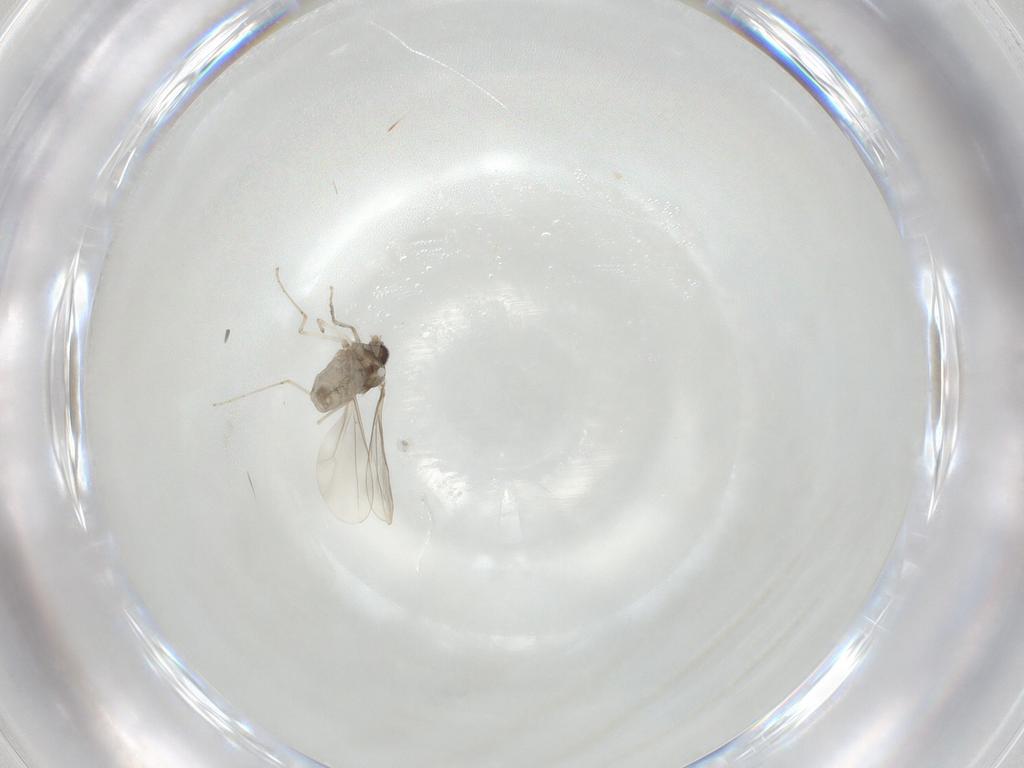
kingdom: Animalia
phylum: Arthropoda
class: Insecta
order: Diptera
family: Cecidomyiidae
